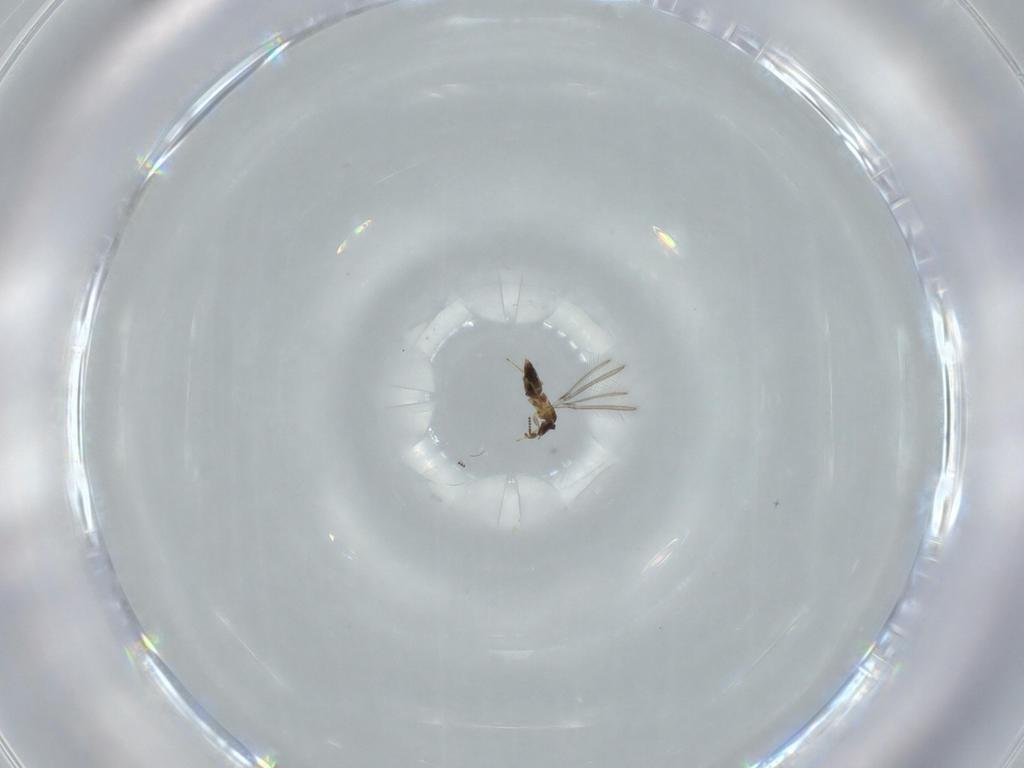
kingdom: Animalia
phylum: Arthropoda
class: Insecta
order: Hymenoptera
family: Mymaridae
